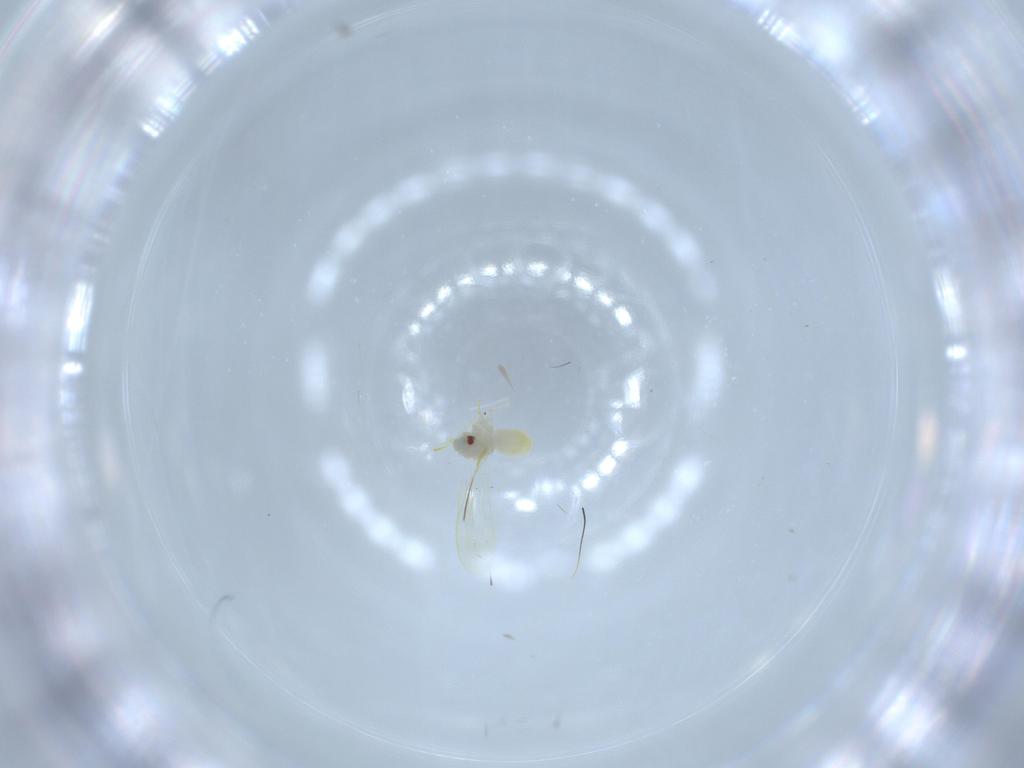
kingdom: Animalia
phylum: Arthropoda
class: Insecta
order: Hemiptera
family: Aleyrodidae
